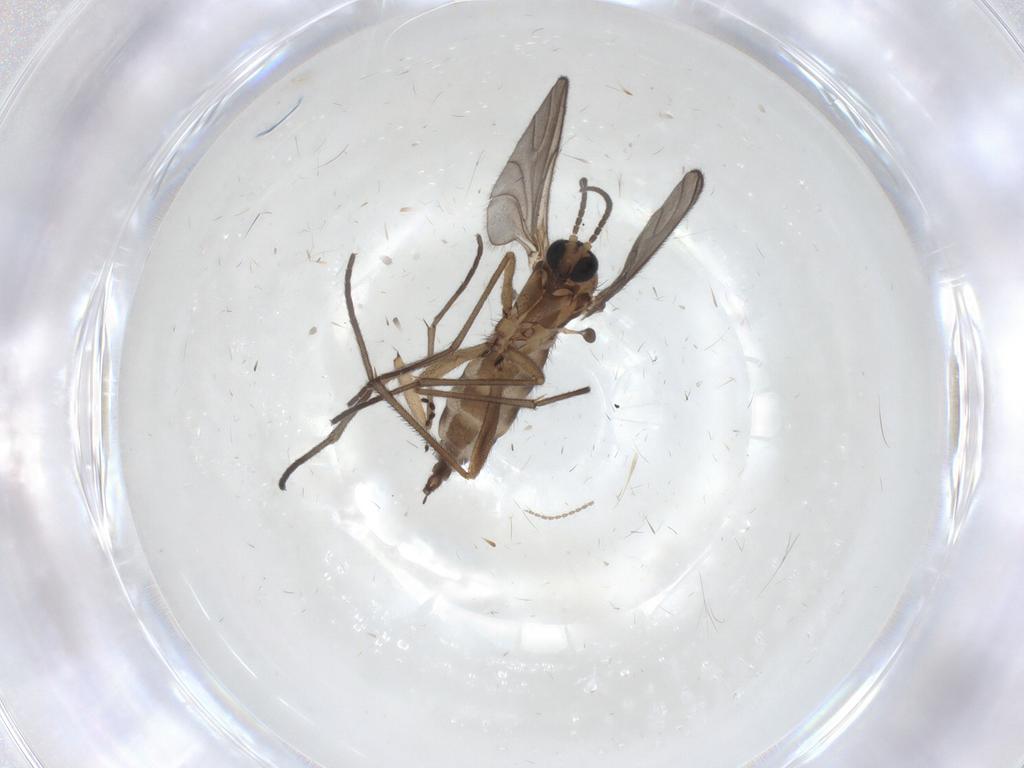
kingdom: Animalia
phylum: Arthropoda
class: Insecta
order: Diptera
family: Sciaridae
